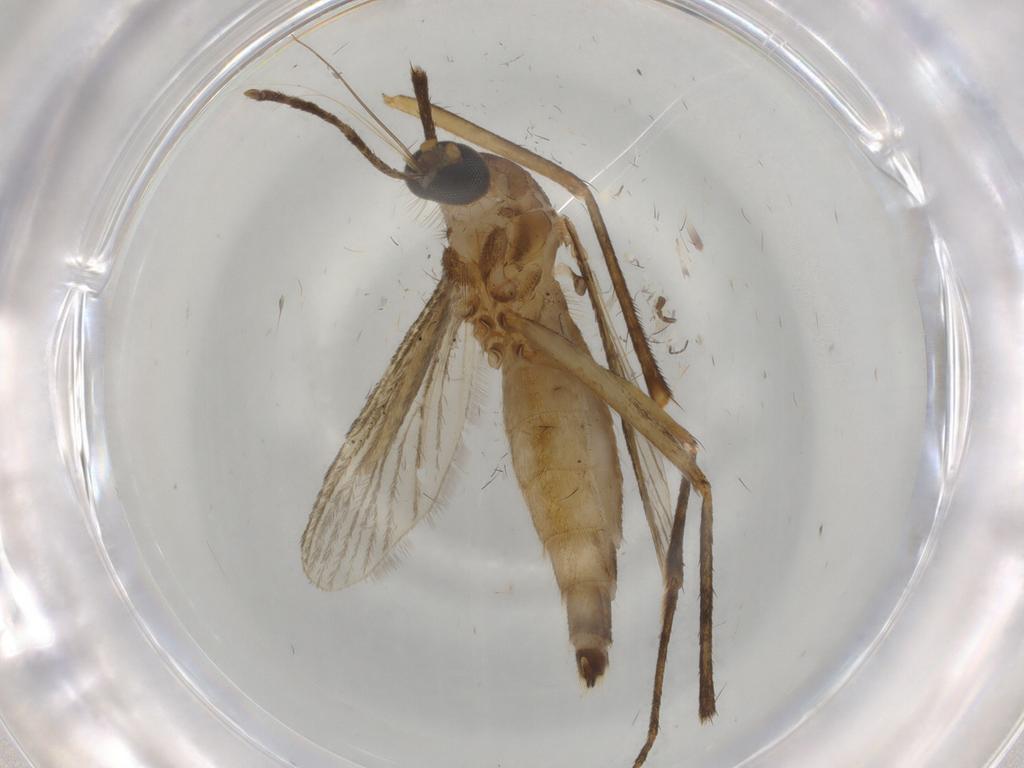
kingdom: Animalia
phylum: Arthropoda
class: Insecta
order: Diptera
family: Culicidae
